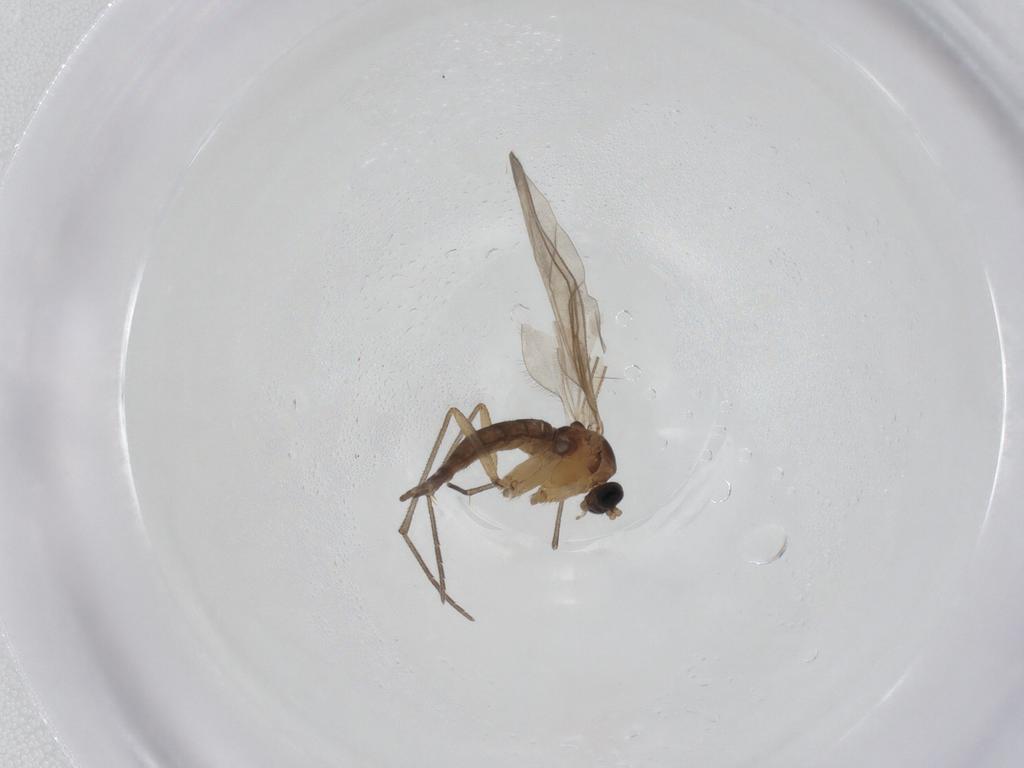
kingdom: Animalia
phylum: Arthropoda
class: Insecta
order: Diptera
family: Sciaridae
